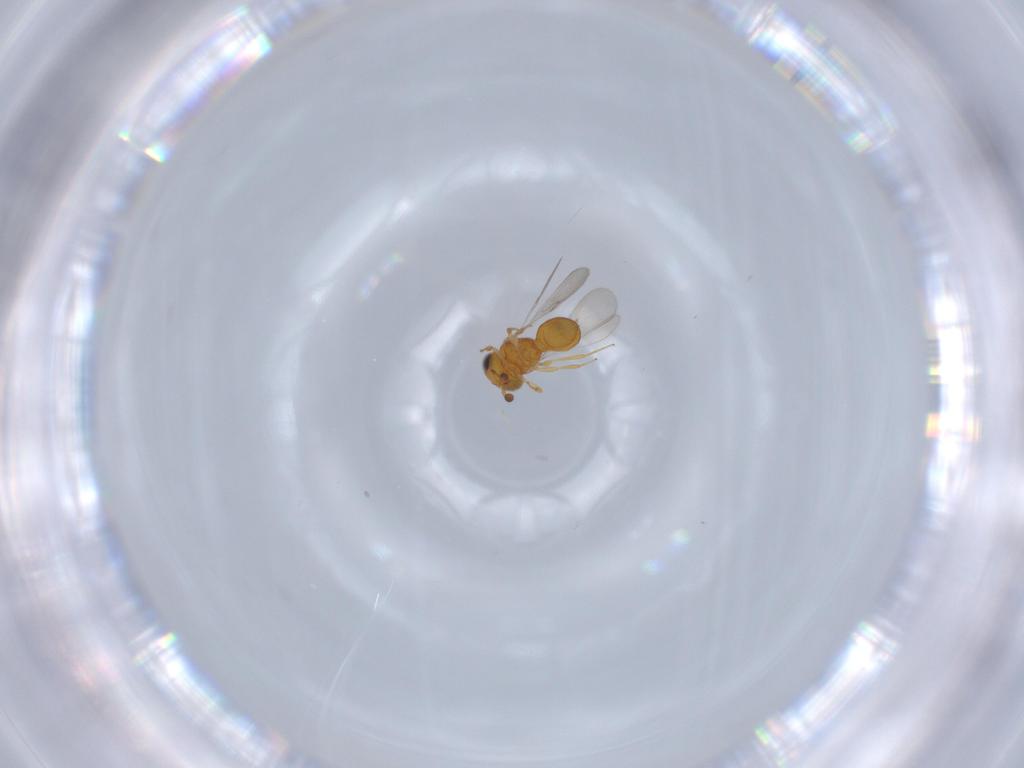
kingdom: Animalia
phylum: Arthropoda
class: Insecta
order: Hymenoptera
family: Scelionidae
